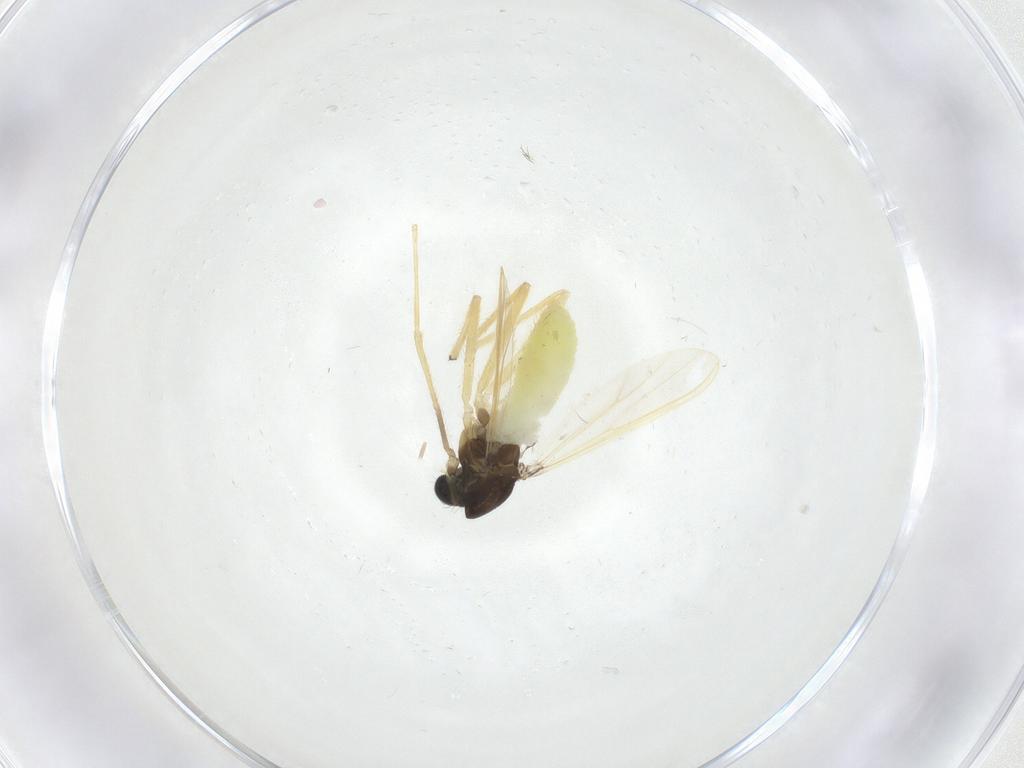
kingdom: Animalia
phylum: Arthropoda
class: Insecta
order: Diptera
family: Chironomidae
